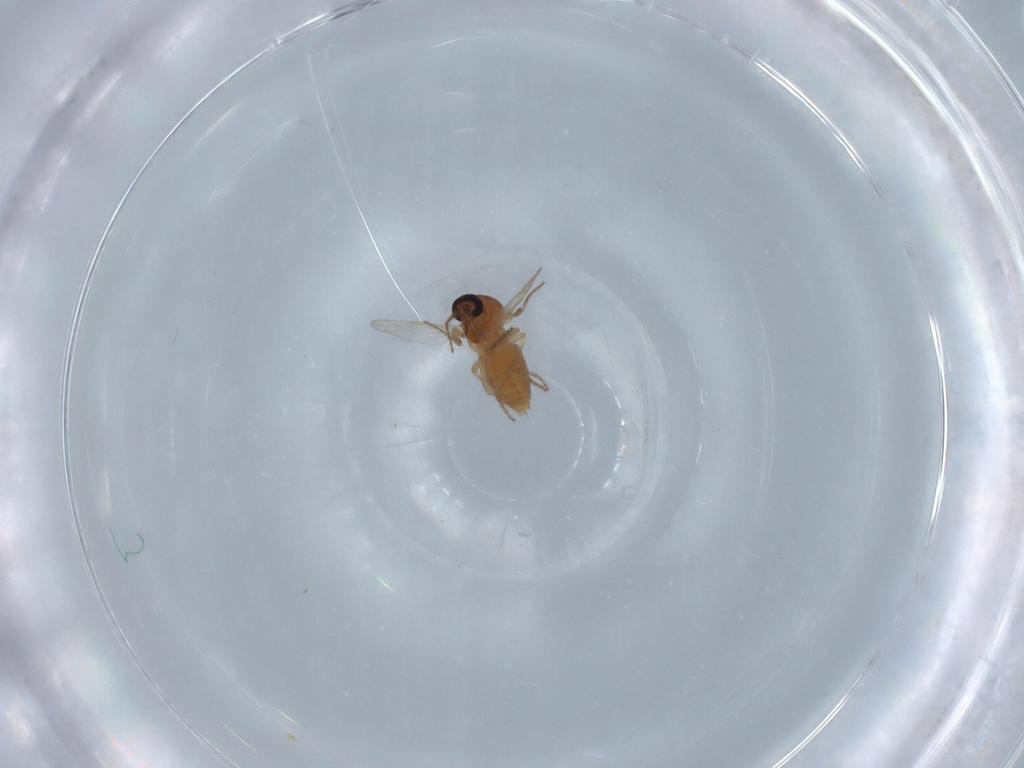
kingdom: Animalia
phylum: Arthropoda
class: Insecta
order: Diptera
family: Ceratopogonidae
